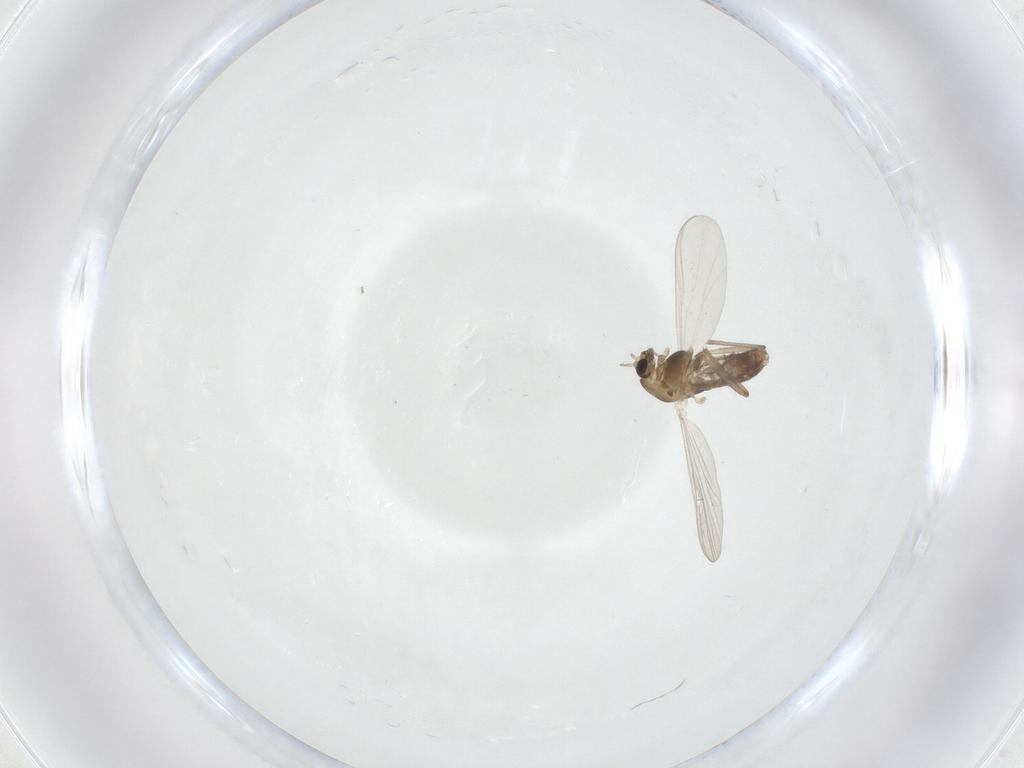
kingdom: Animalia
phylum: Arthropoda
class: Insecta
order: Diptera
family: Chironomidae
